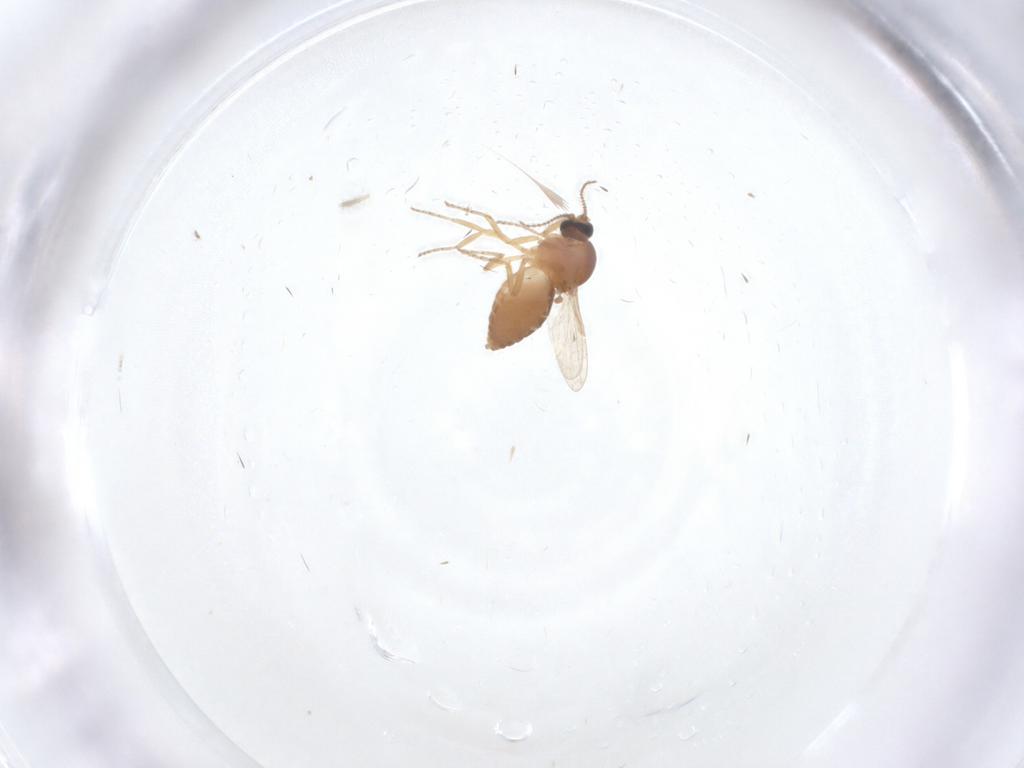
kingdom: Animalia
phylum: Arthropoda
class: Insecta
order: Diptera
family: Ceratopogonidae
